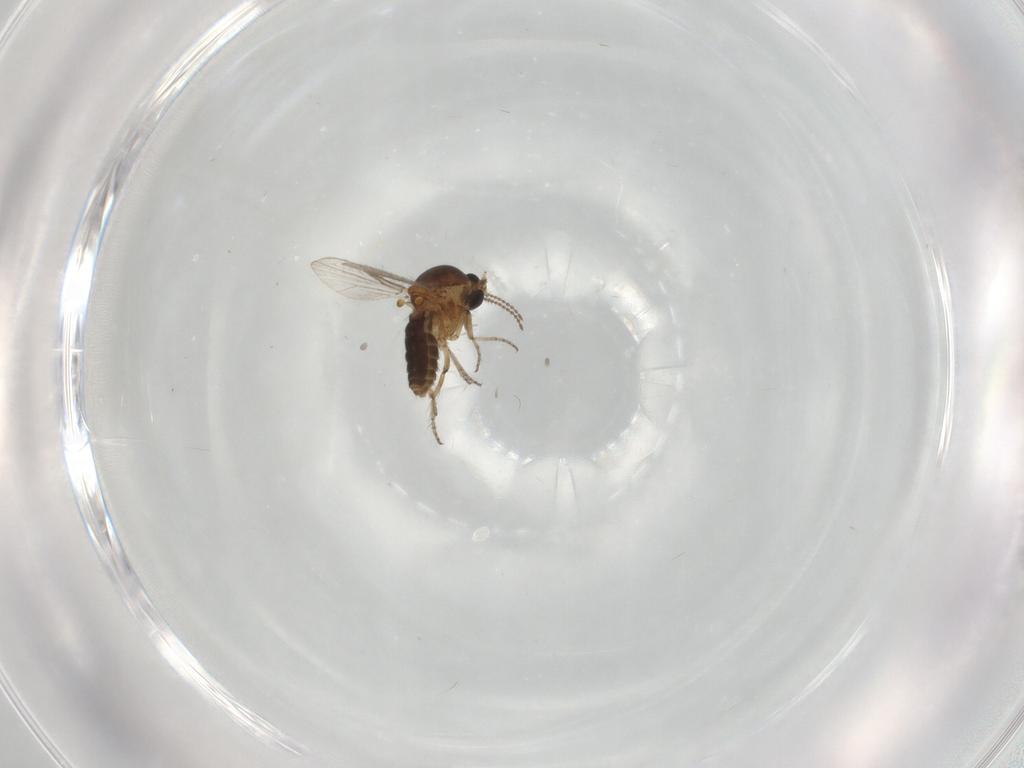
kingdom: Animalia
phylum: Arthropoda
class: Insecta
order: Diptera
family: Ceratopogonidae
